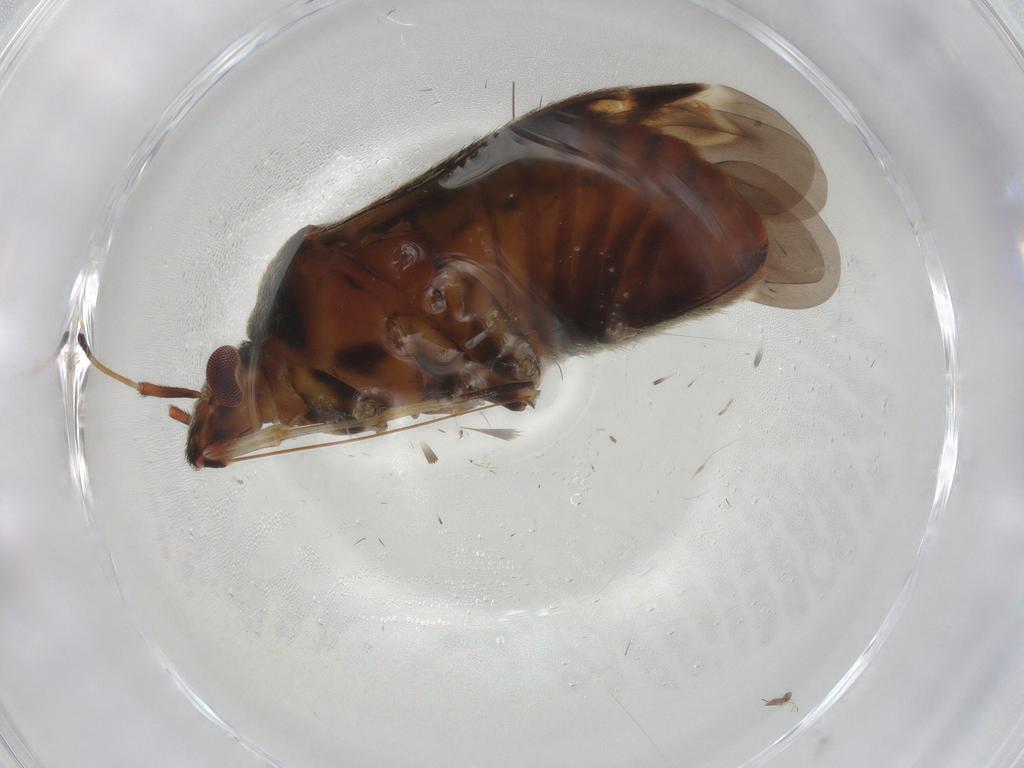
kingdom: Animalia
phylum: Arthropoda
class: Insecta
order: Hemiptera
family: Miridae
